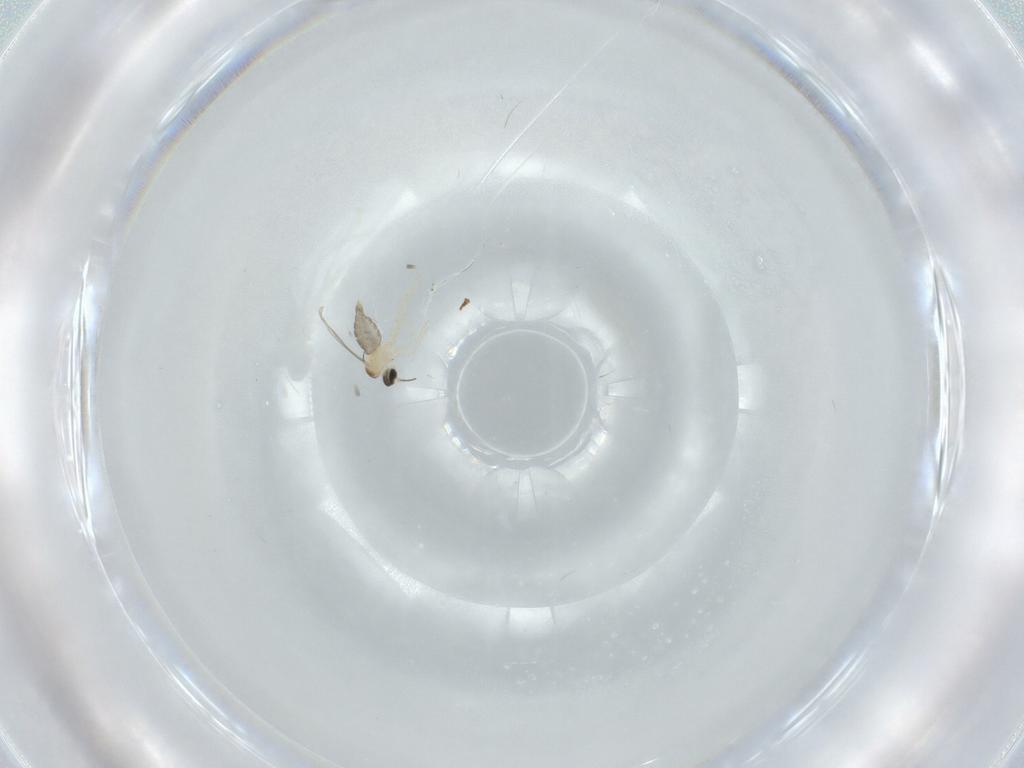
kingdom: Animalia
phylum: Arthropoda
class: Insecta
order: Diptera
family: Cecidomyiidae
